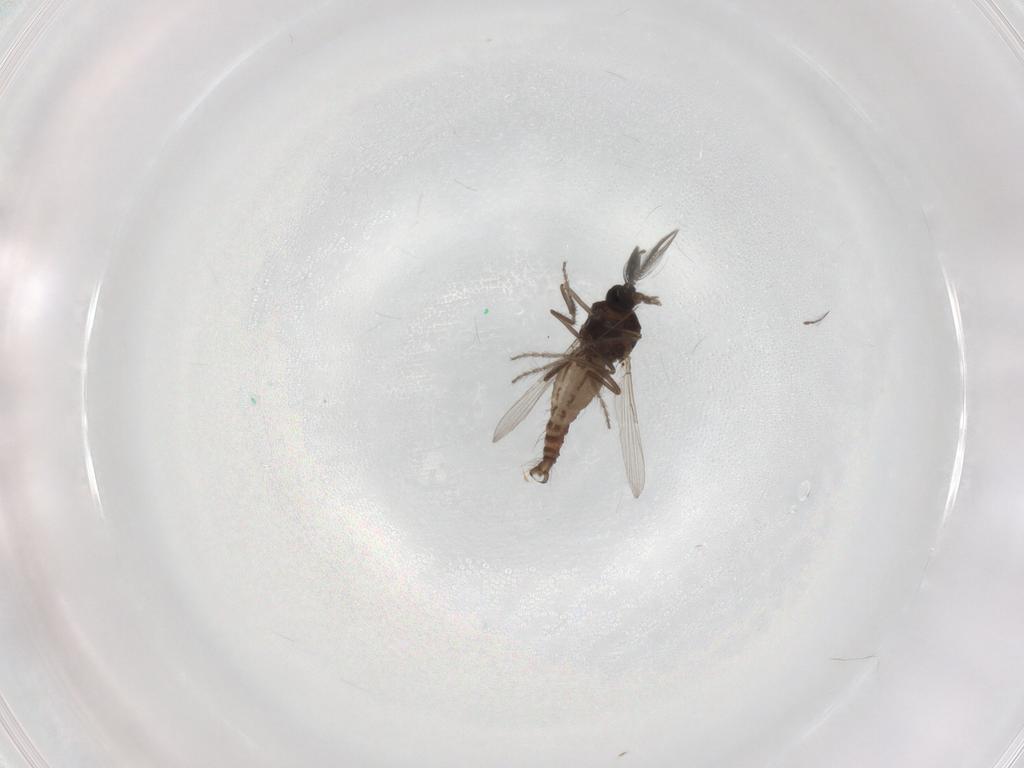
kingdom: Animalia
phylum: Arthropoda
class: Insecta
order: Diptera
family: Ceratopogonidae
